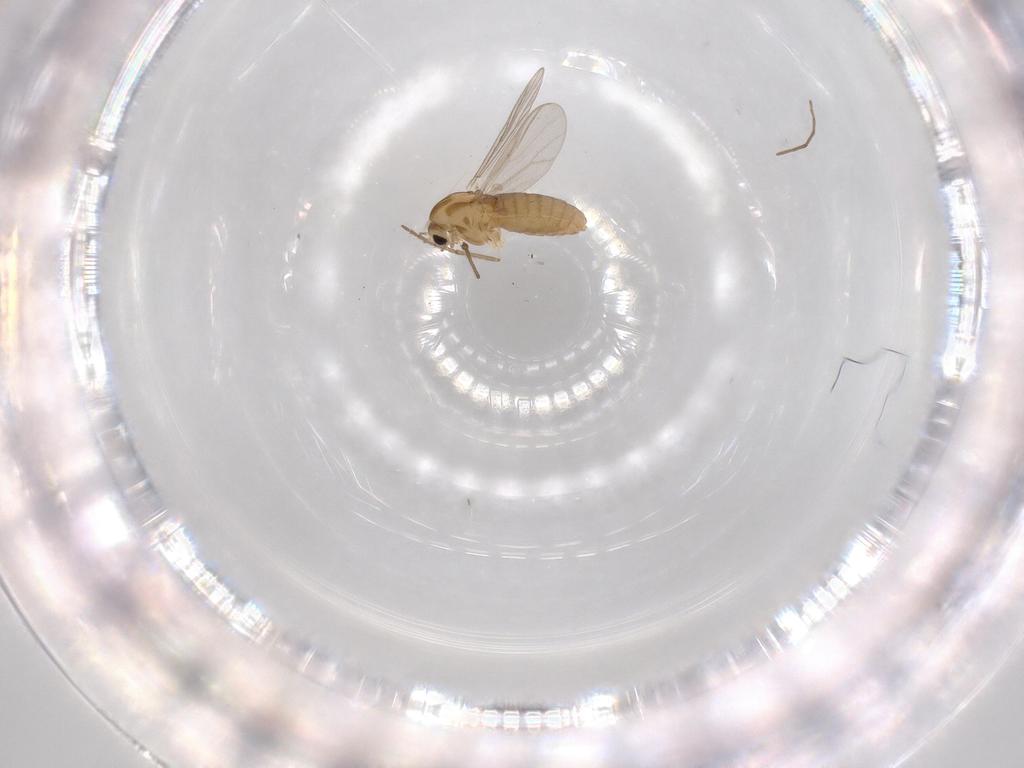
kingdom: Animalia
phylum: Arthropoda
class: Insecta
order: Diptera
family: Chironomidae
